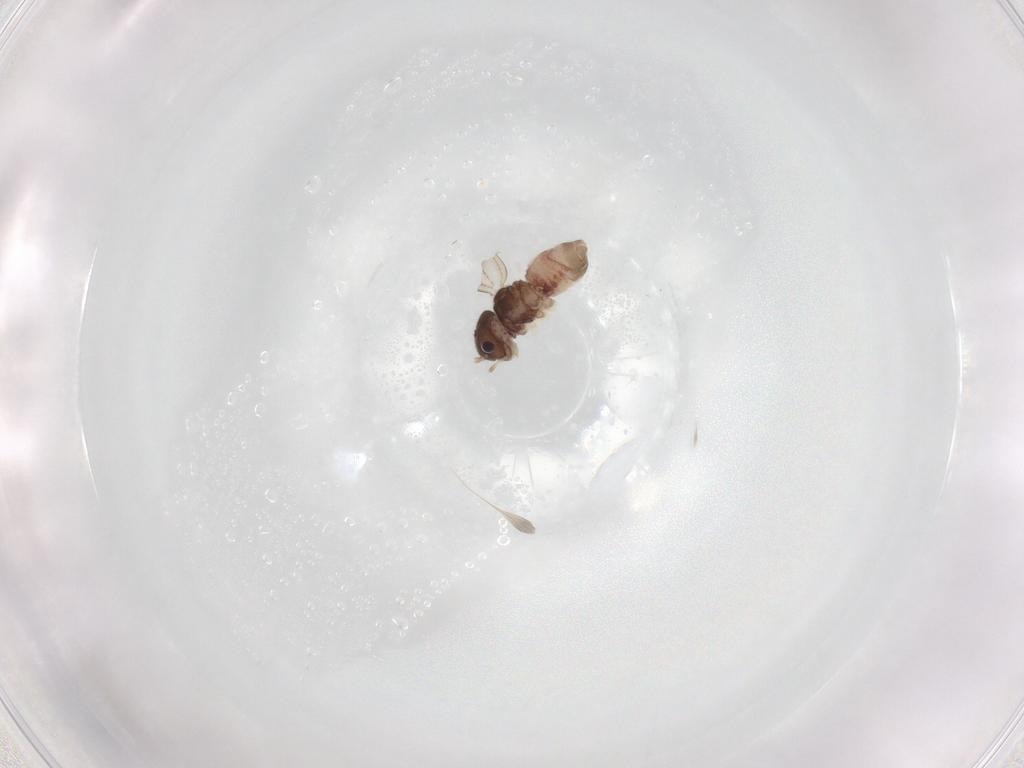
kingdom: Animalia
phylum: Arthropoda
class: Insecta
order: Psocodea
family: Peripsocidae
